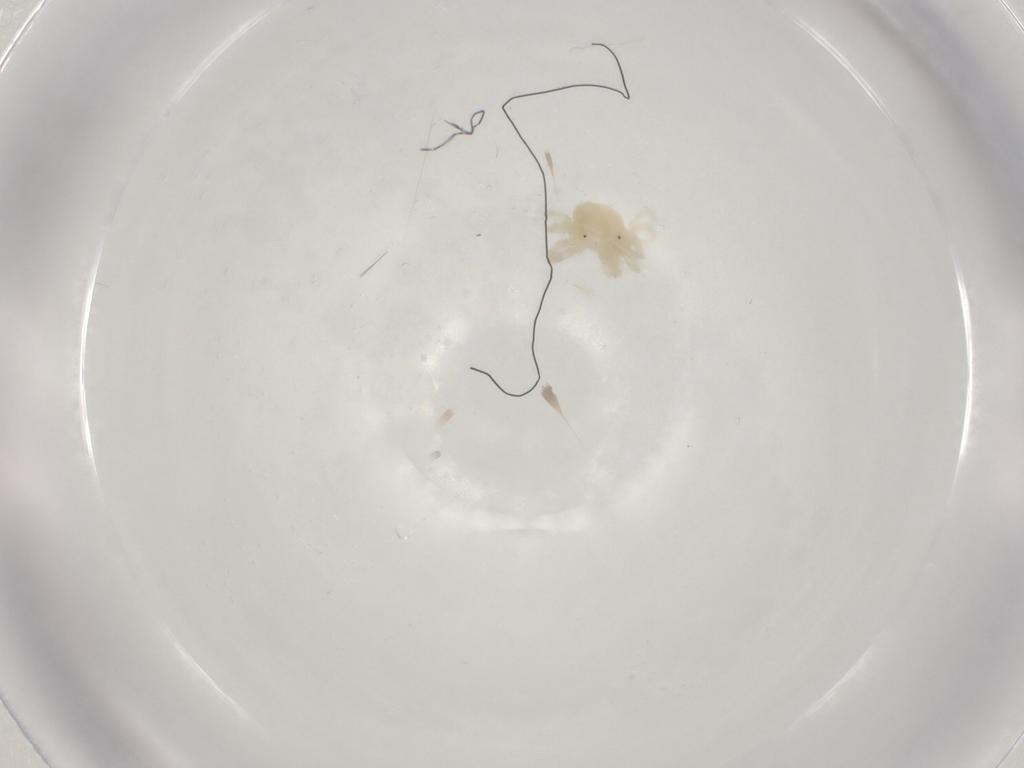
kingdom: Animalia
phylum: Arthropoda
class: Arachnida
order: Trombidiformes
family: Anystidae
